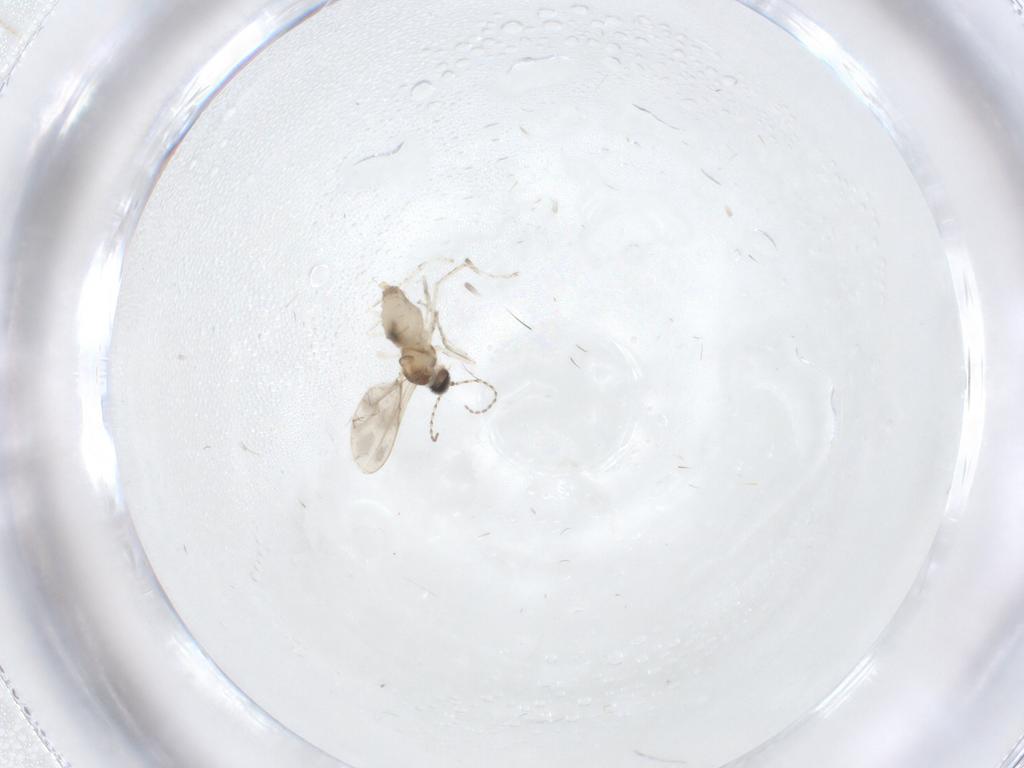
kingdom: Animalia
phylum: Arthropoda
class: Insecta
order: Diptera
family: Cecidomyiidae
